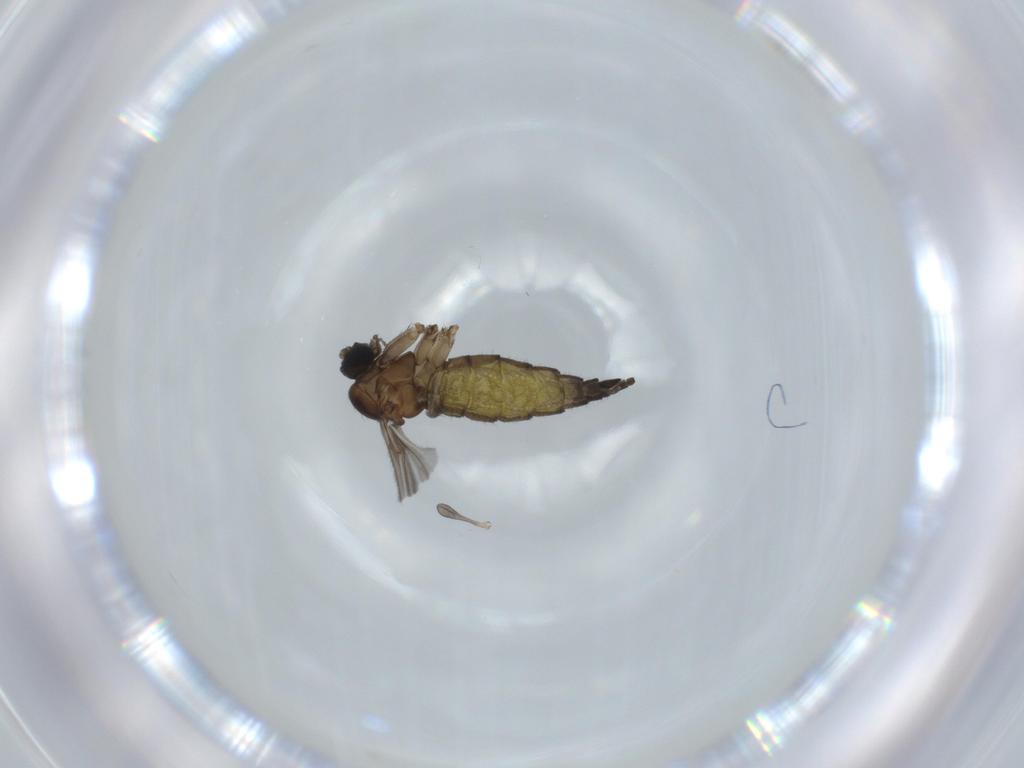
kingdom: Animalia
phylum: Arthropoda
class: Insecta
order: Diptera
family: Sciaridae
